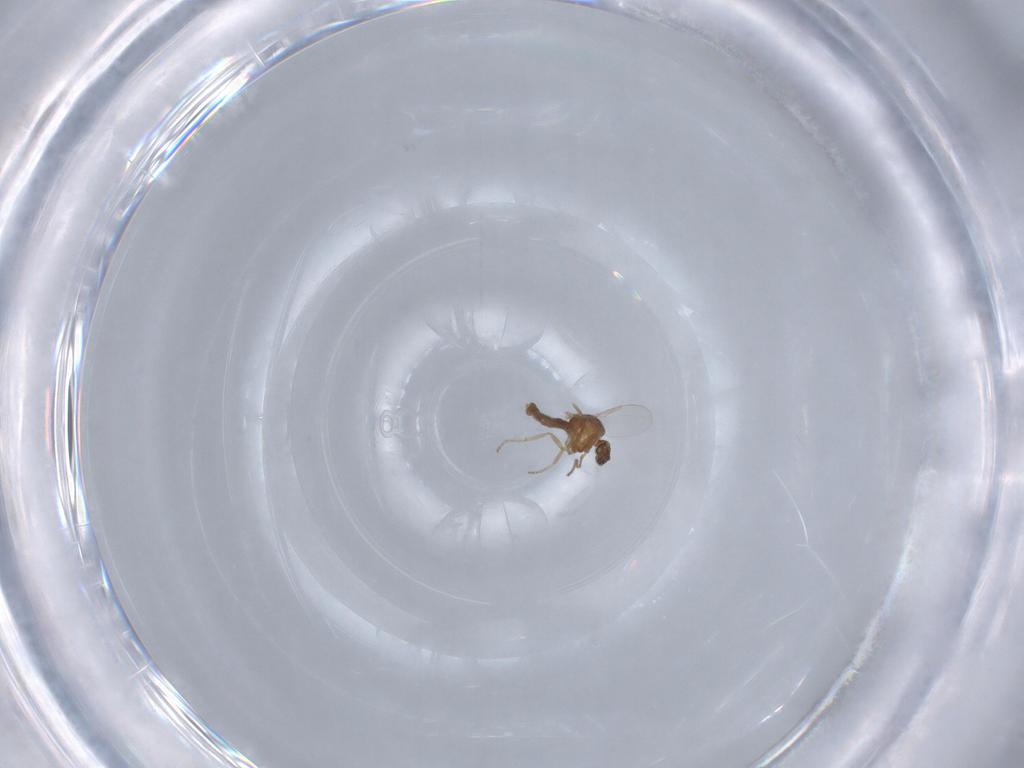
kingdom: Animalia
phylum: Arthropoda
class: Insecta
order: Diptera
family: Ceratopogonidae
